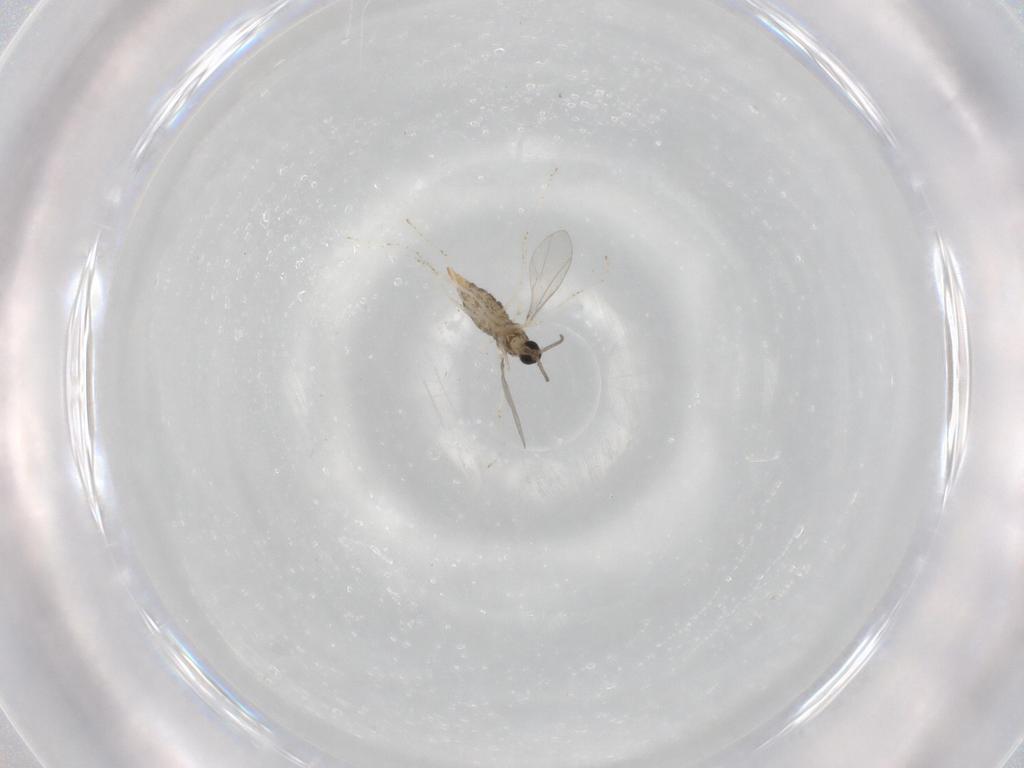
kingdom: Animalia
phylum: Arthropoda
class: Insecta
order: Diptera
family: Cecidomyiidae
